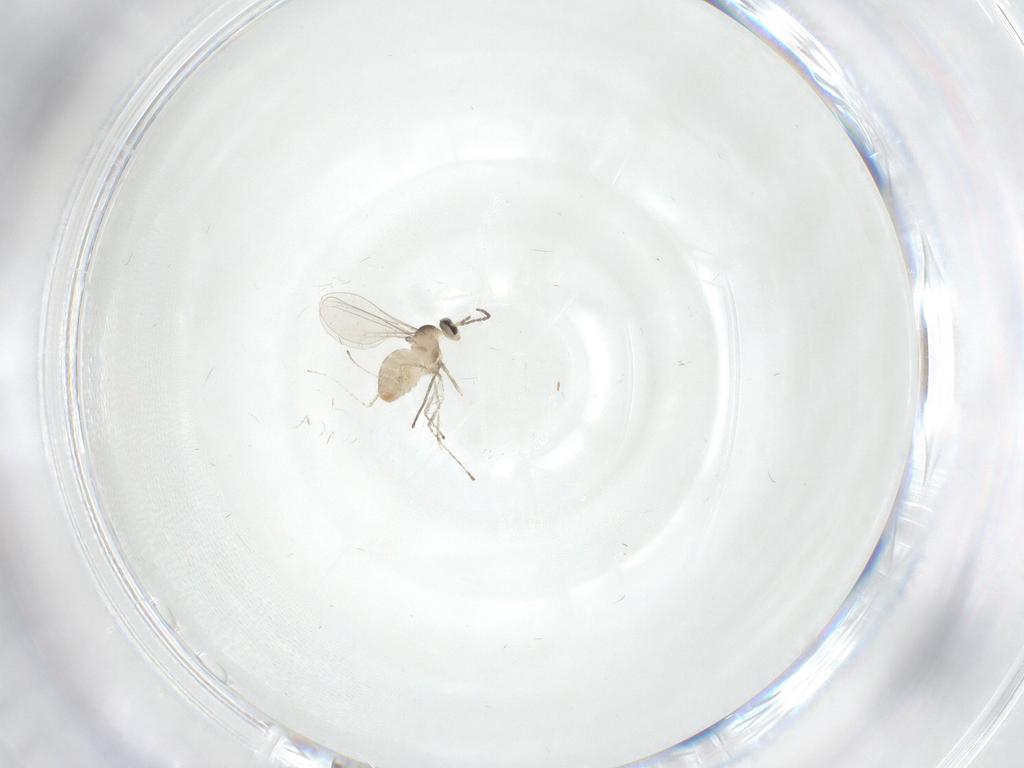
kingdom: Animalia
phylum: Arthropoda
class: Insecta
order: Diptera
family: Cecidomyiidae
